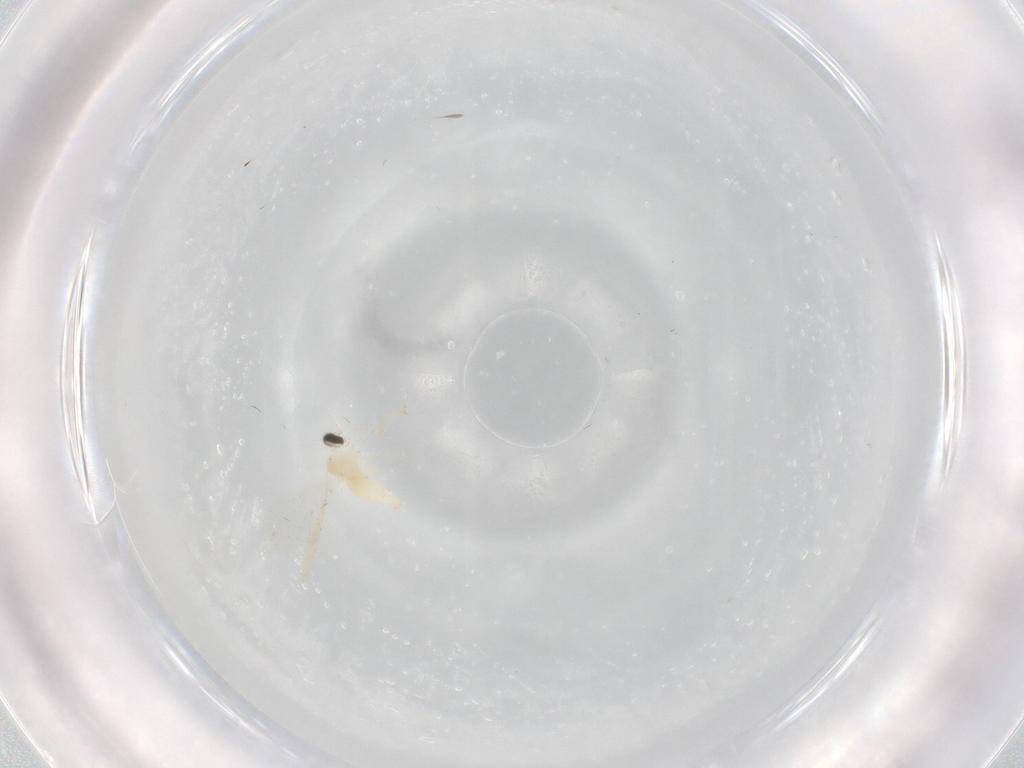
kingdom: Animalia
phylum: Arthropoda
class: Insecta
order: Diptera
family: Cecidomyiidae
